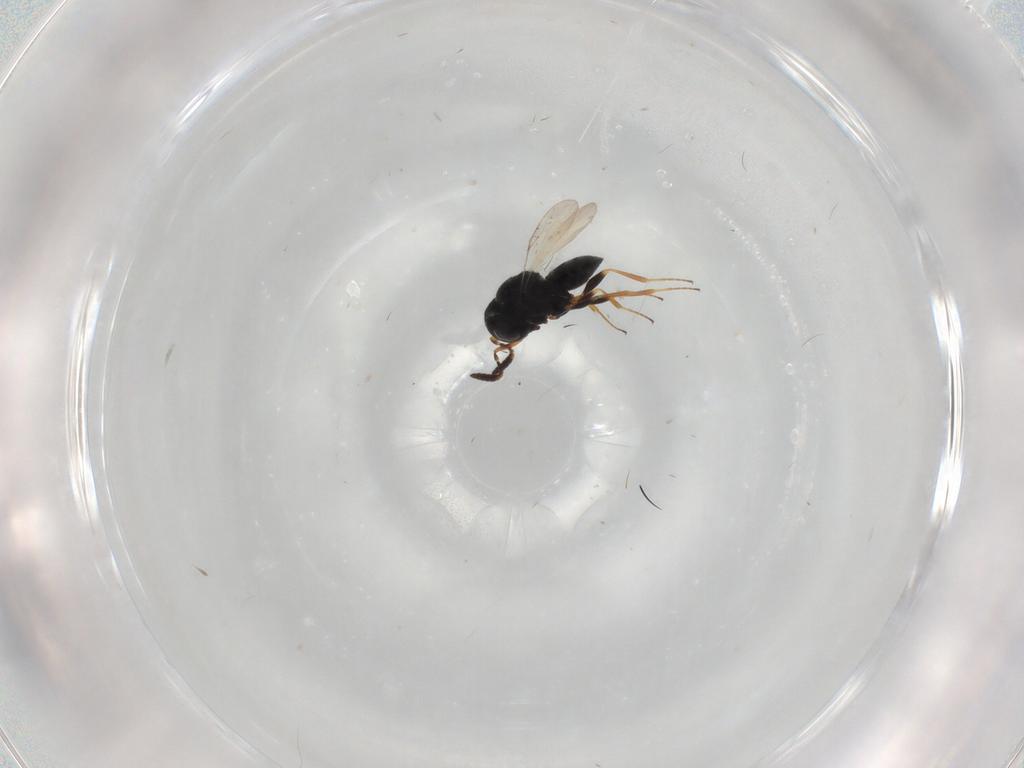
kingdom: Animalia
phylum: Arthropoda
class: Insecta
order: Coleoptera
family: Curculionidae
